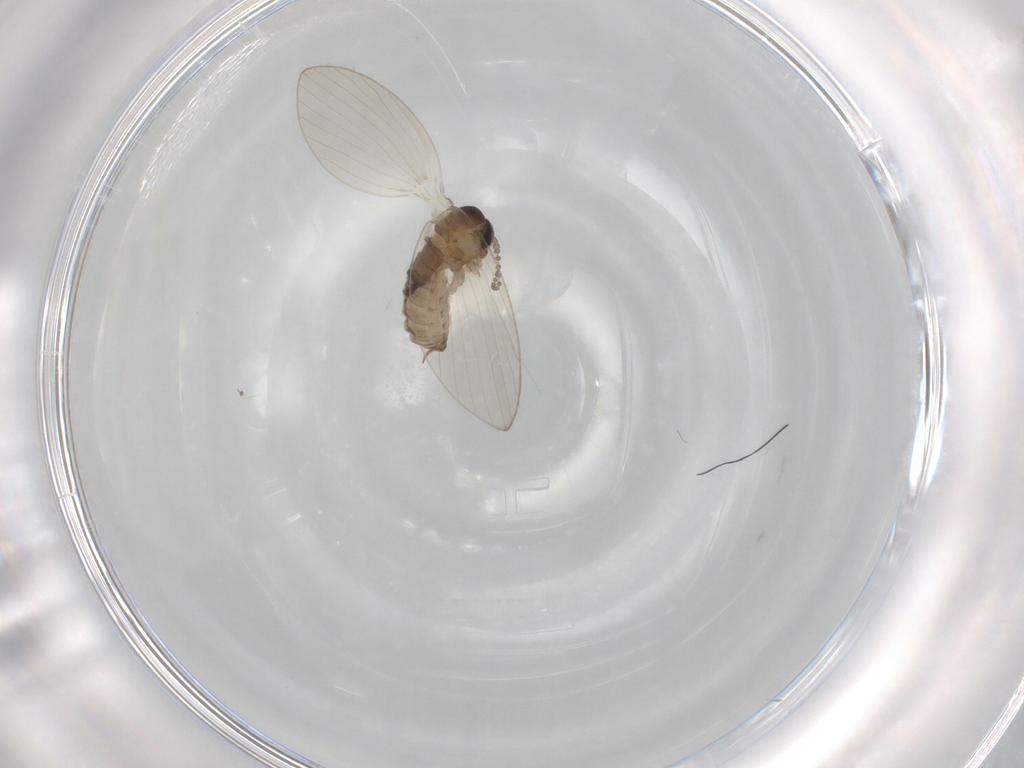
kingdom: Animalia
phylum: Arthropoda
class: Insecta
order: Diptera
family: Psychodidae
